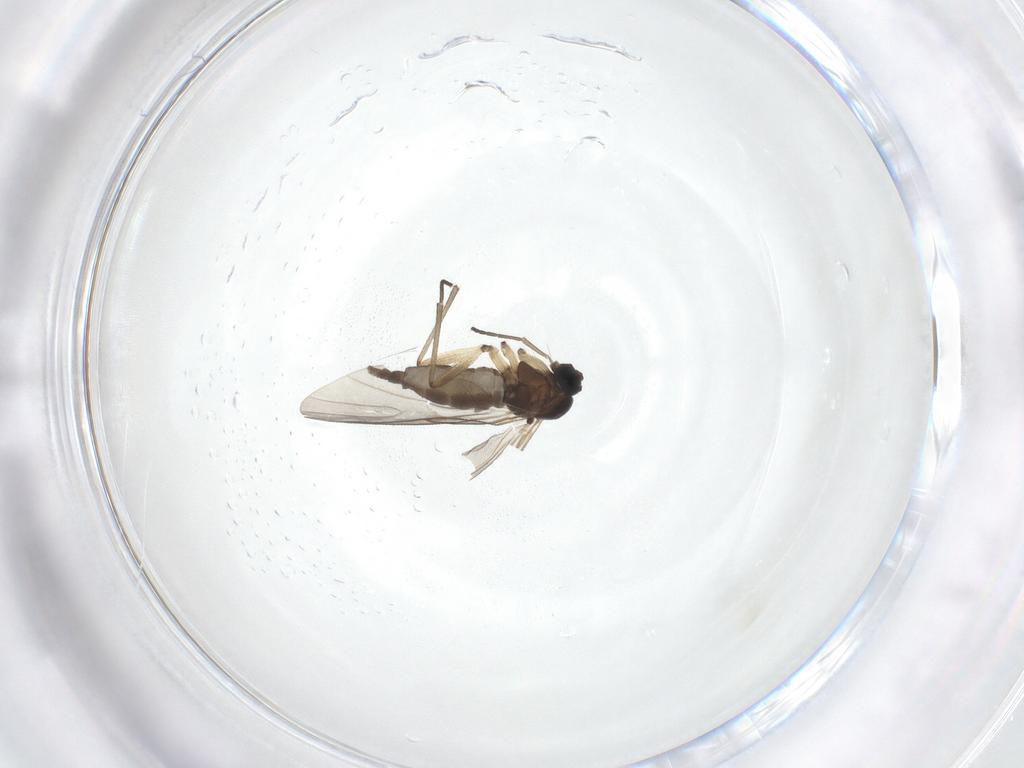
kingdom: Animalia
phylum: Arthropoda
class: Insecta
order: Diptera
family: Sciaridae
